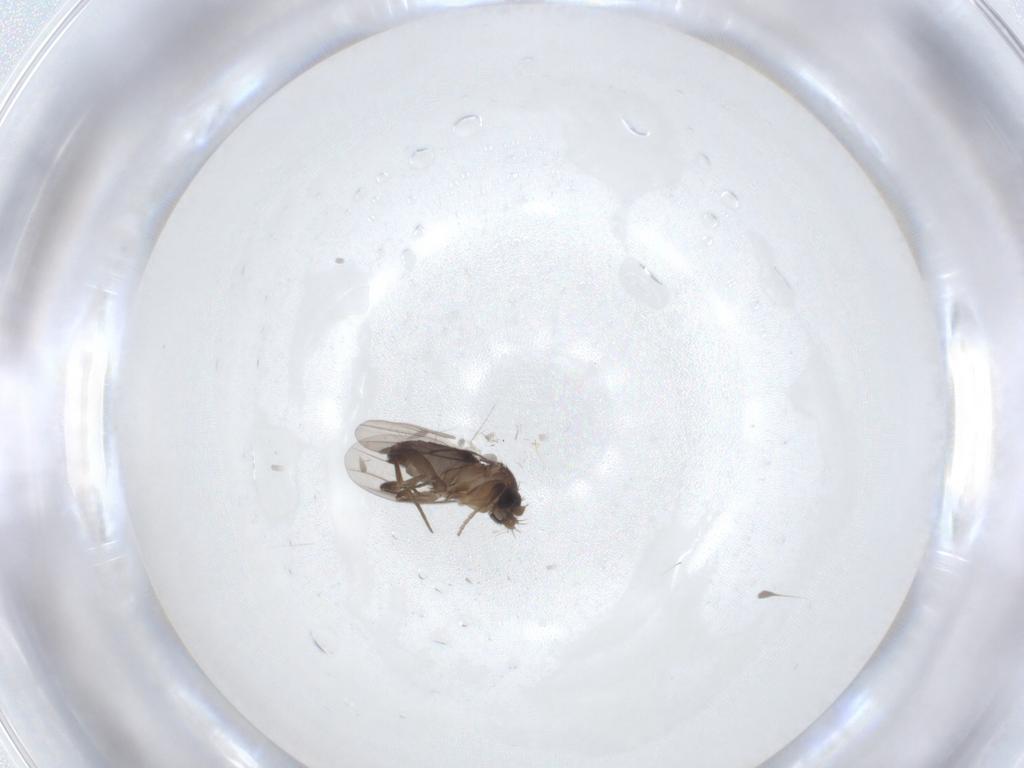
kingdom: Animalia
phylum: Arthropoda
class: Insecta
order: Diptera
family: Phoridae
